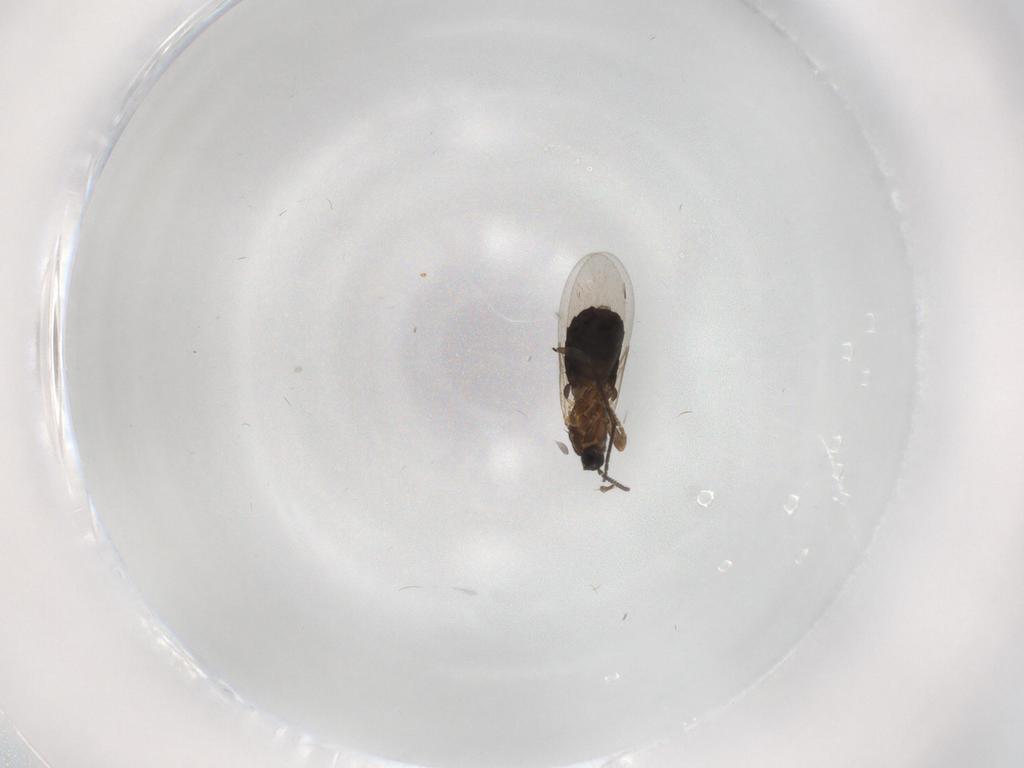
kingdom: Animalia
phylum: Arthropoda
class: Insecta
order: Diptera
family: Scatopsidae
